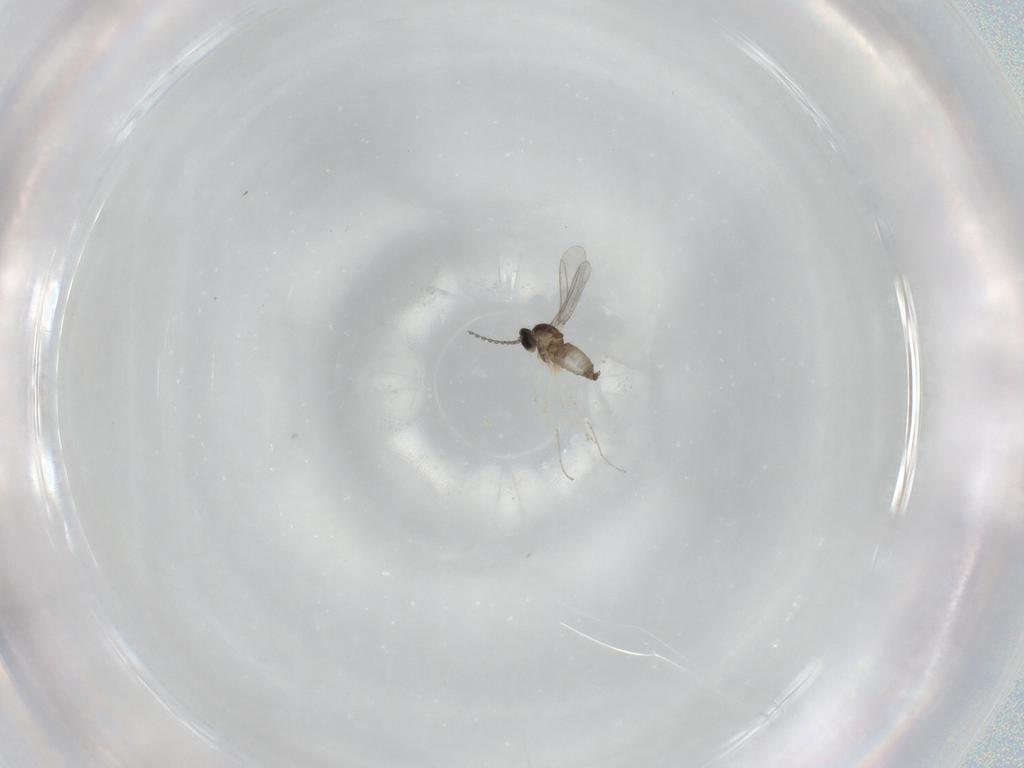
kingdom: Animalia
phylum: Arthropoda
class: Insecta
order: Diptera
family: Cecidomyiidae
